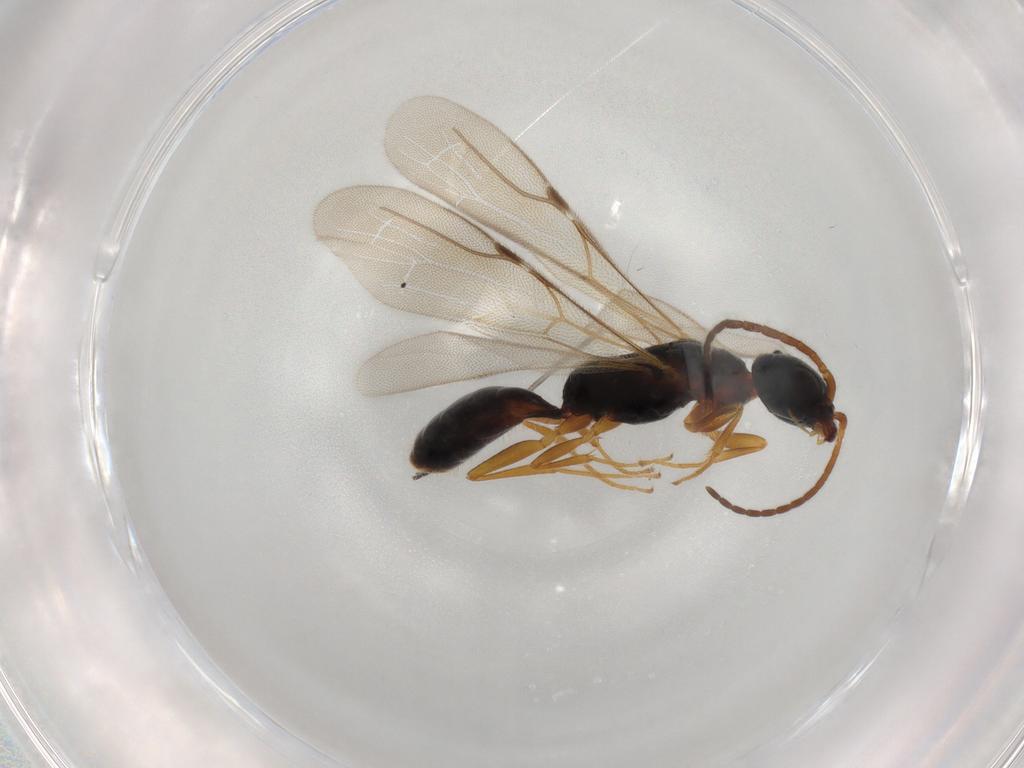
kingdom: Animalia
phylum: Arthropoda
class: Insecta
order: Hymenoptera
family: Bethylidae
